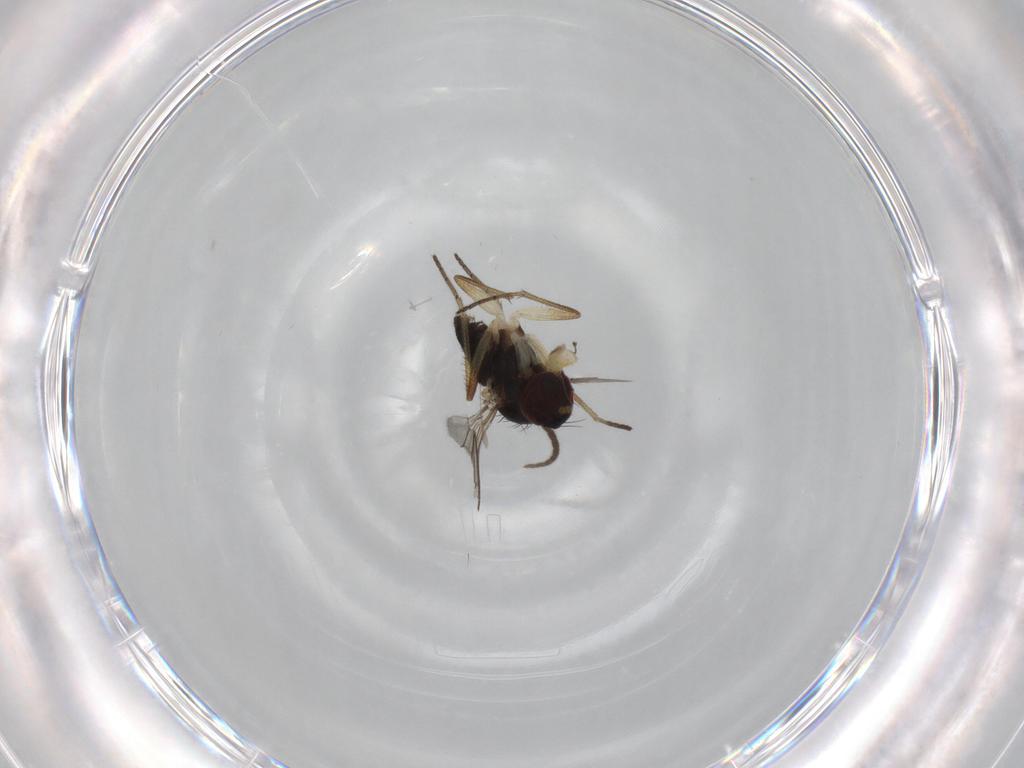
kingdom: Animalia
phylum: Arthropoda
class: Insecta
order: Diptera
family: Dolichopodidae
